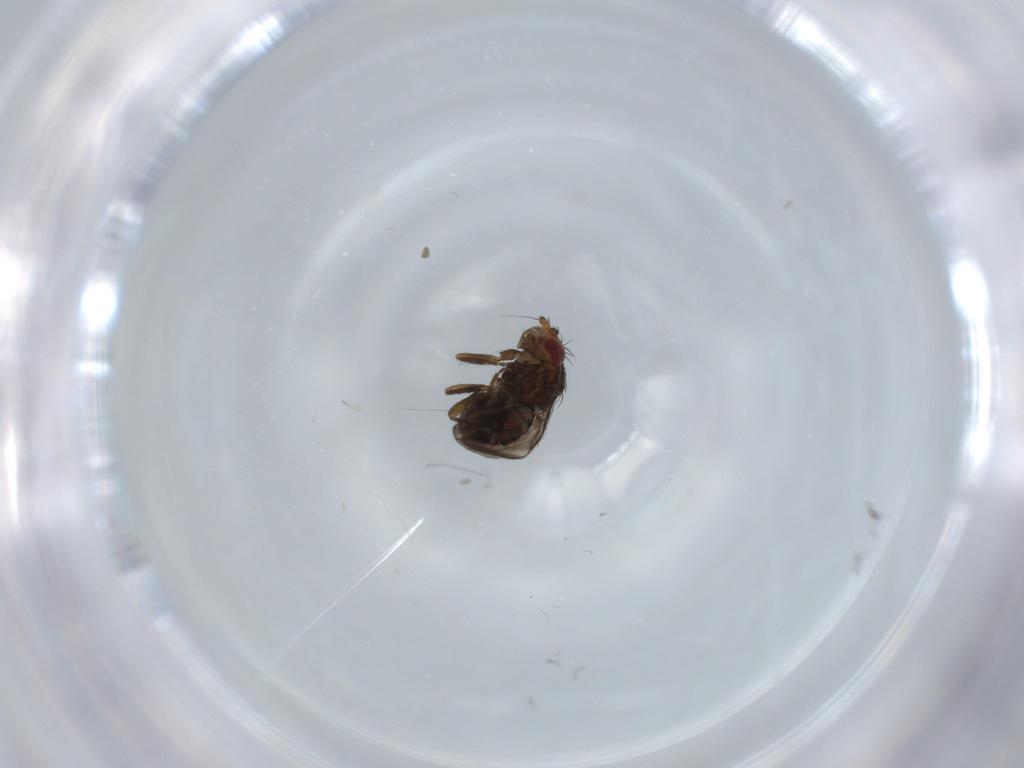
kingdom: Animalia
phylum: Arthropoda
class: Insecta
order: Diptera
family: Sphaeroceridae
